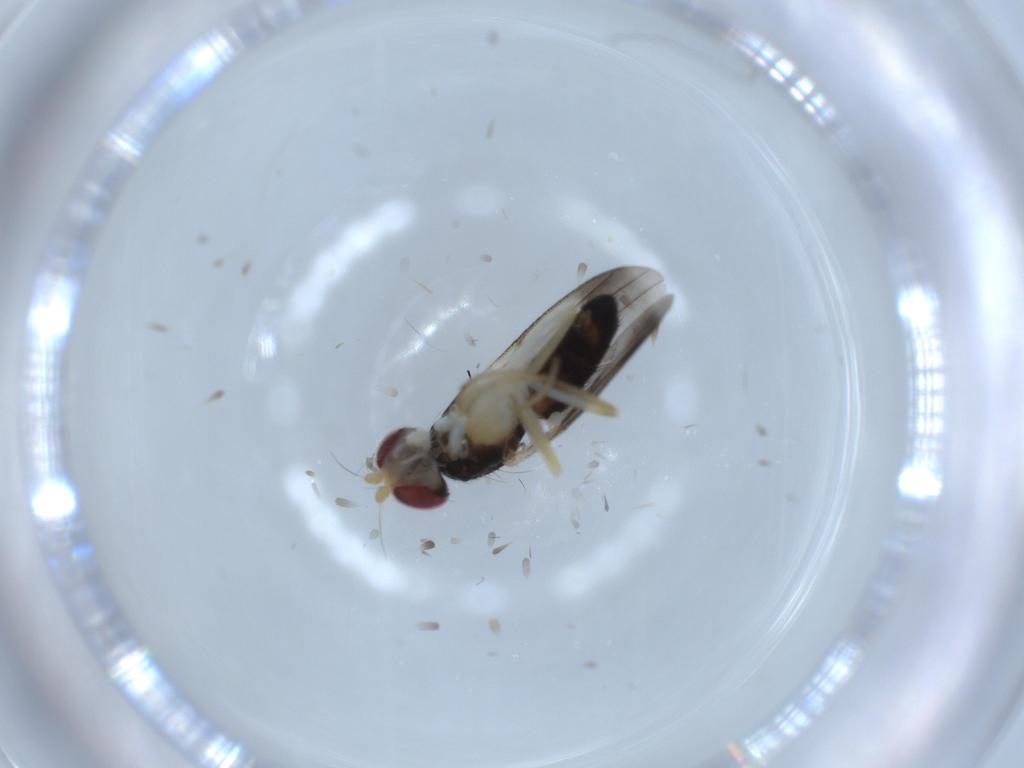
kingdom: Animalia
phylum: Arthropoda
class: Insecta
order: Diptera
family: Clusiidae
